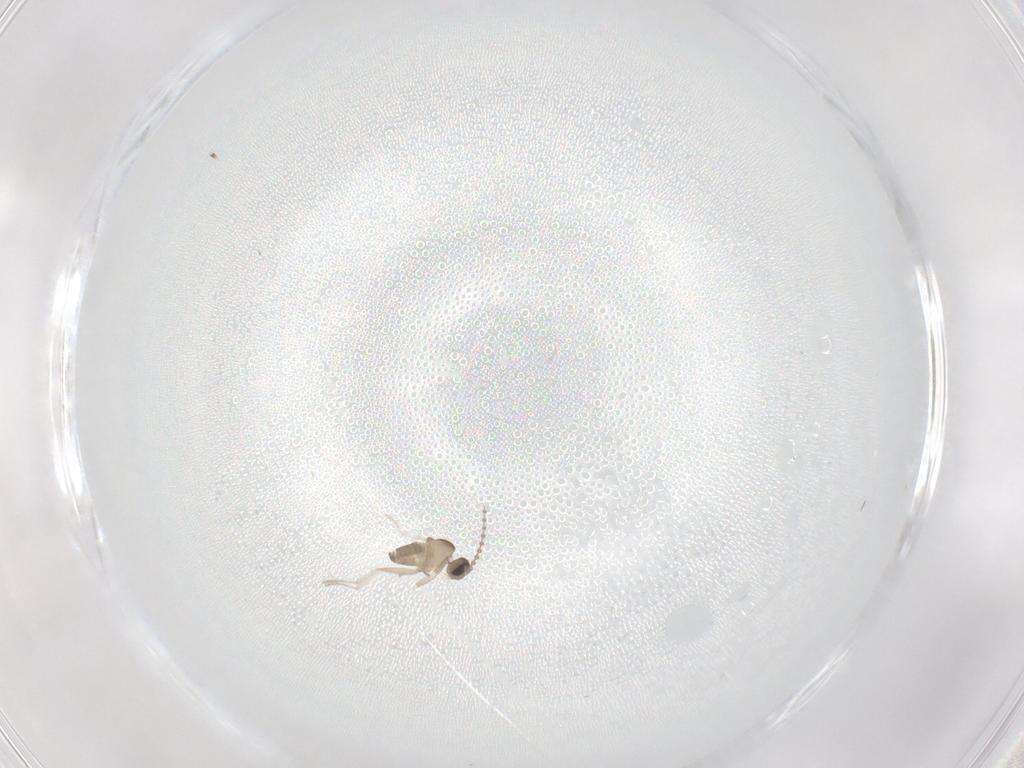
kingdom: Animalia
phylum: Arthropoda
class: Insecta
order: Diptera
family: Cecidomyiidae
